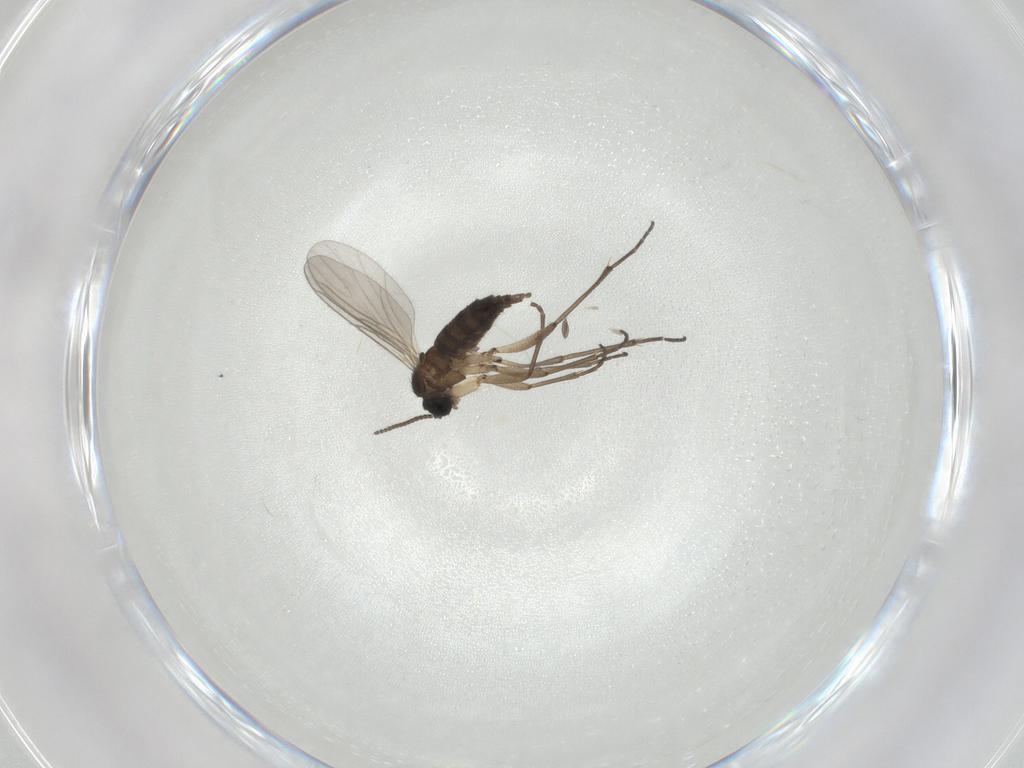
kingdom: Animalia
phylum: Arthropoda
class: Insecta
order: Diptera
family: Sciaridae
